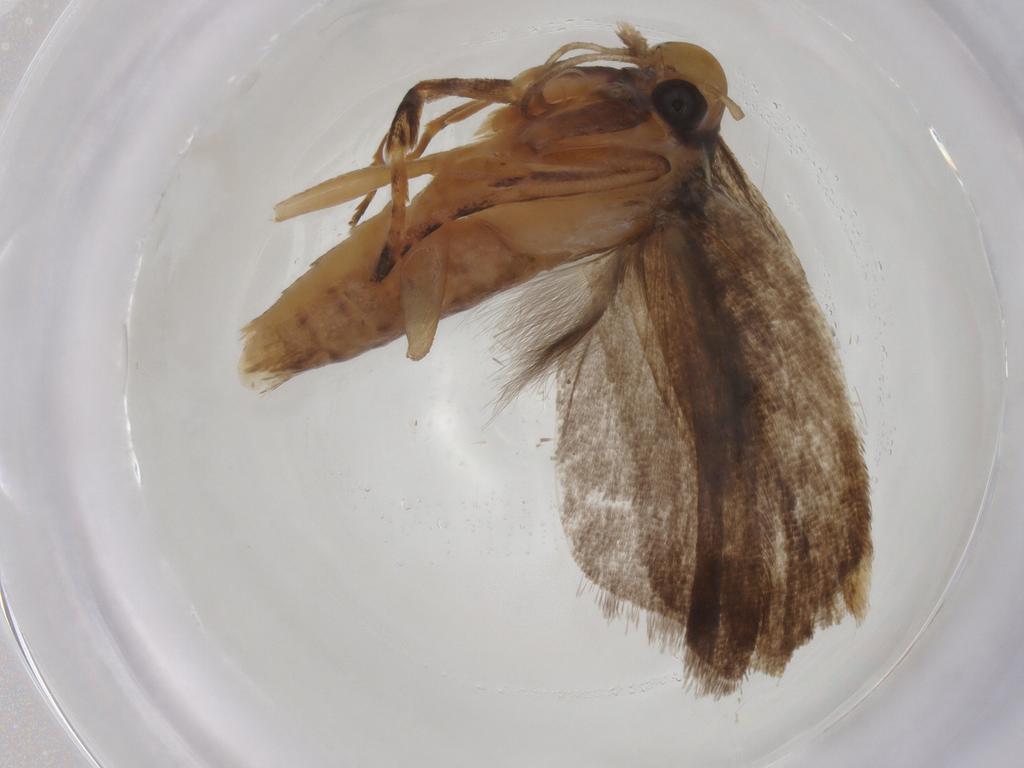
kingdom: Animalia
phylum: Arthropoda
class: Insecta
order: Lepidoptera
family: Gelechiidae
